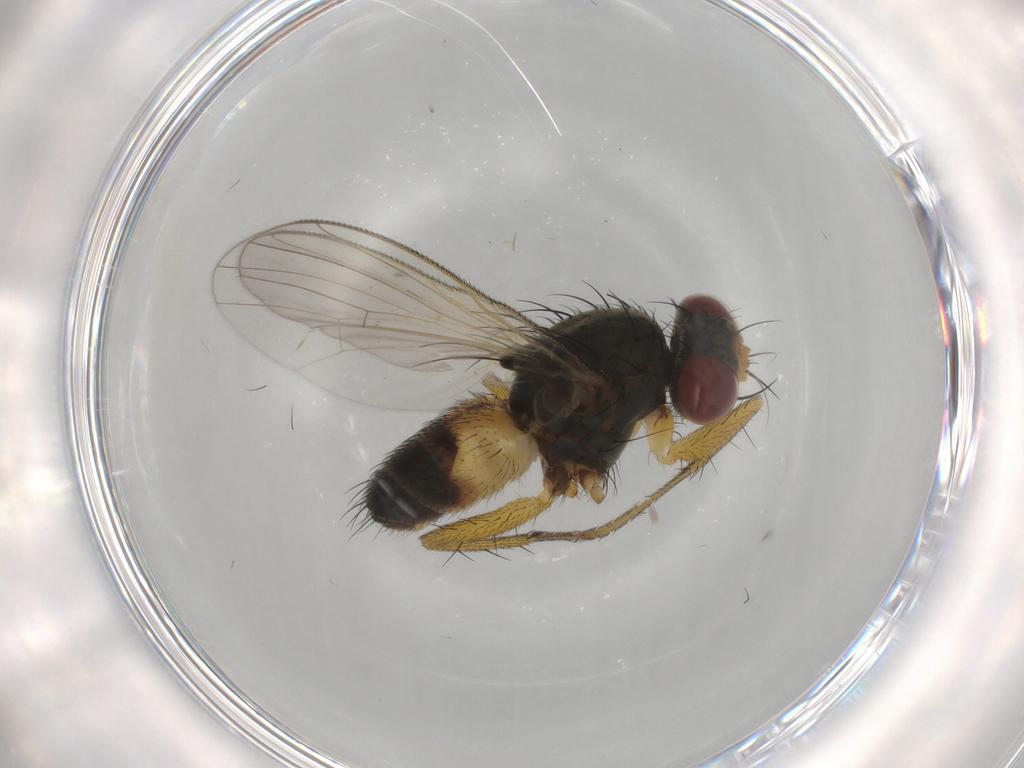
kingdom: Animalia
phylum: Arthropoda
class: Insecta
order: Diptera
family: Muscidae
